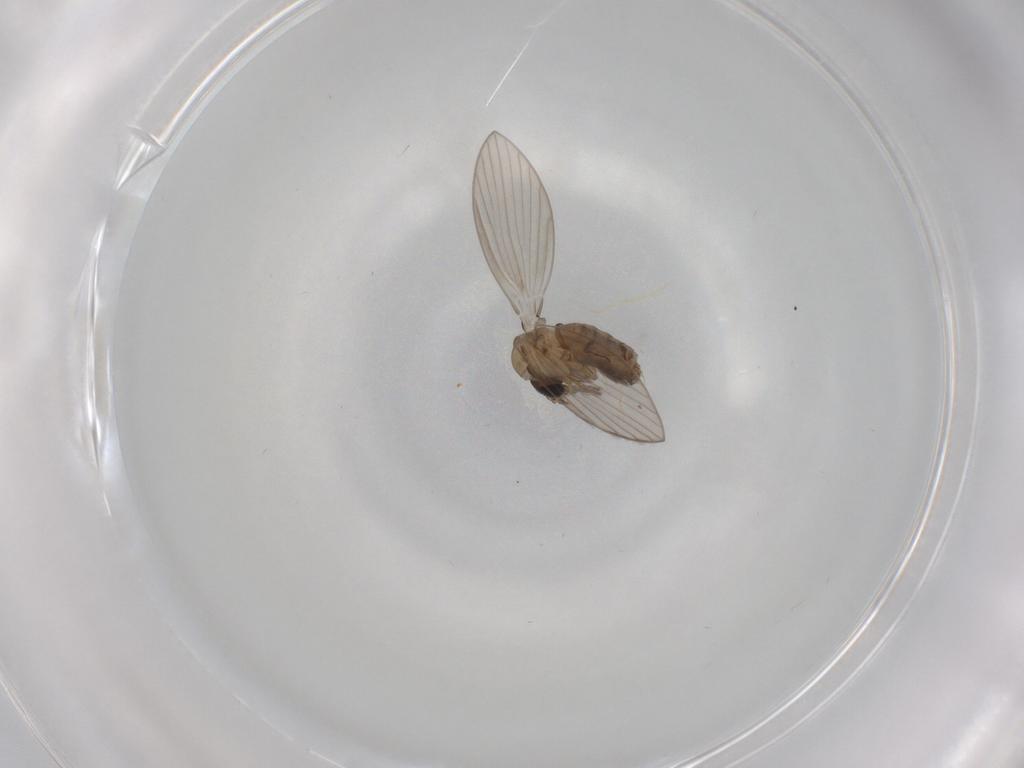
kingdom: Animalia
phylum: Arthropoda
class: Insecta
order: Diptera
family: Psychodidae
